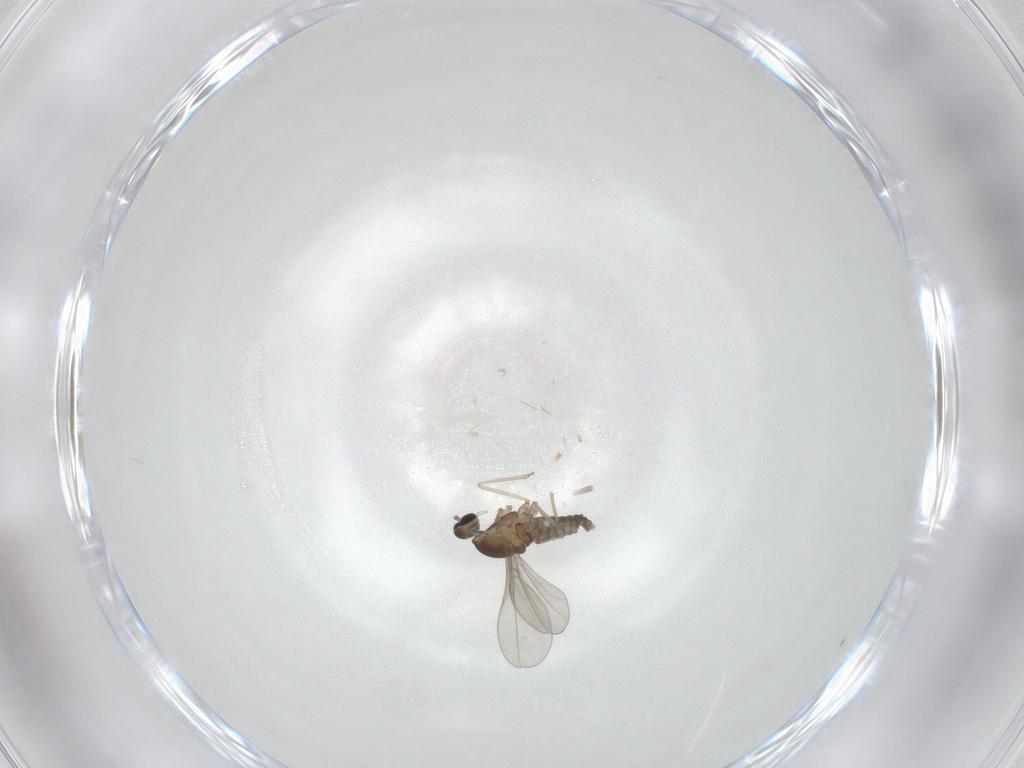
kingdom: Animalia
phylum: Arthropoda
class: Insecta
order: Diptera
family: Cecidomyiidae
